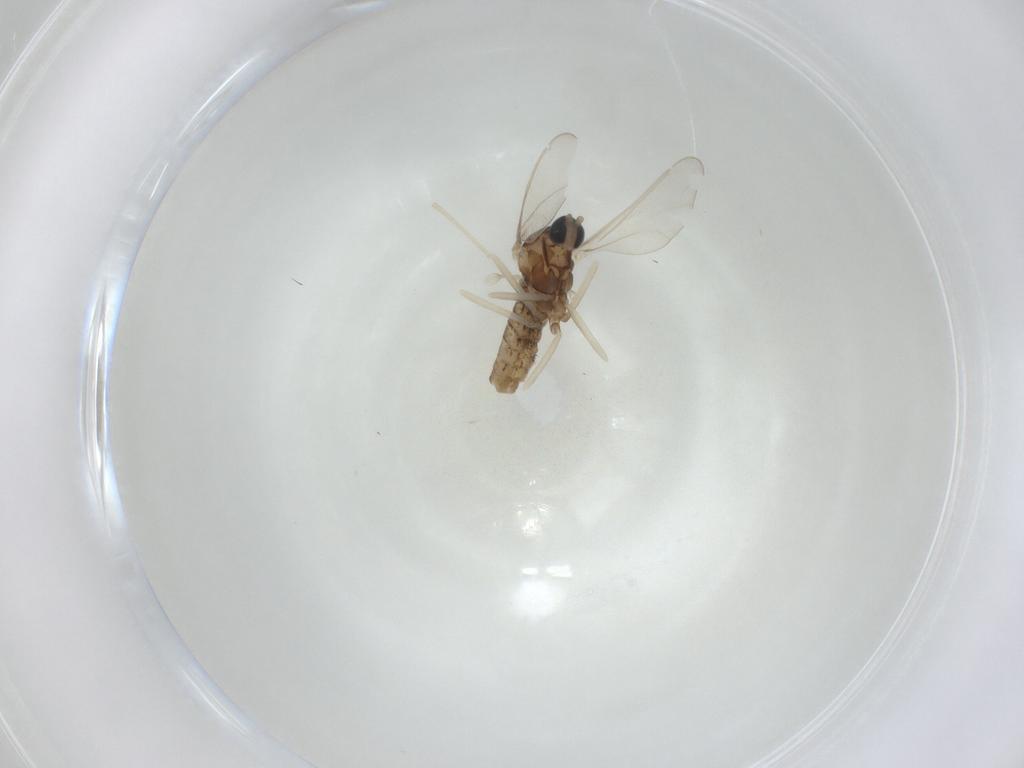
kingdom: Animalia
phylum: Arthropoda
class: Insecta
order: Diptera
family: Cecidomyiidae
